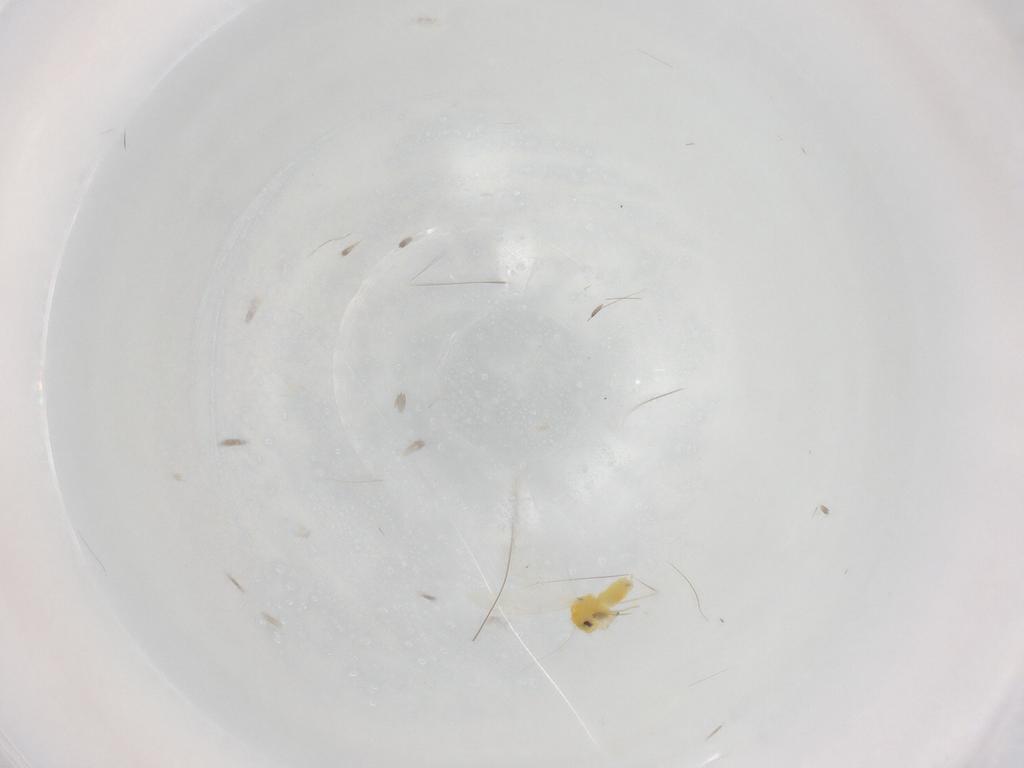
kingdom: Animalia
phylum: Arthropoda
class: Insecta
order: Hemiptera
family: Aleyrodidae
